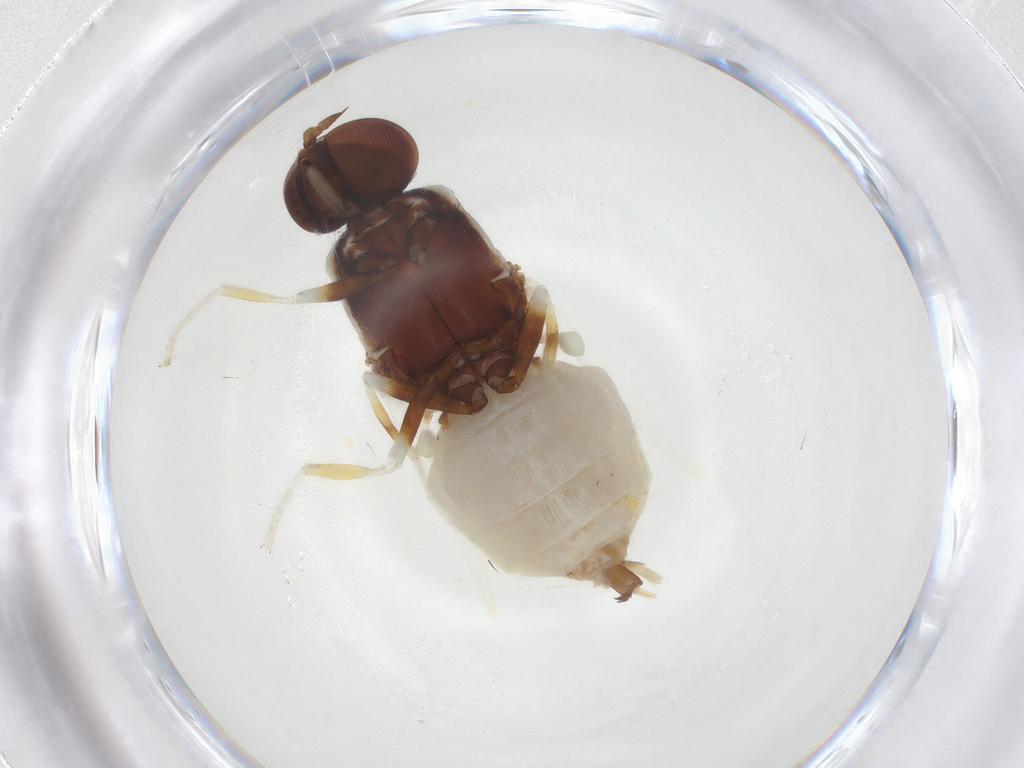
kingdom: Animalia
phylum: Arthropoda
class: Insecta
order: Diptera
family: Stratiomyidae
